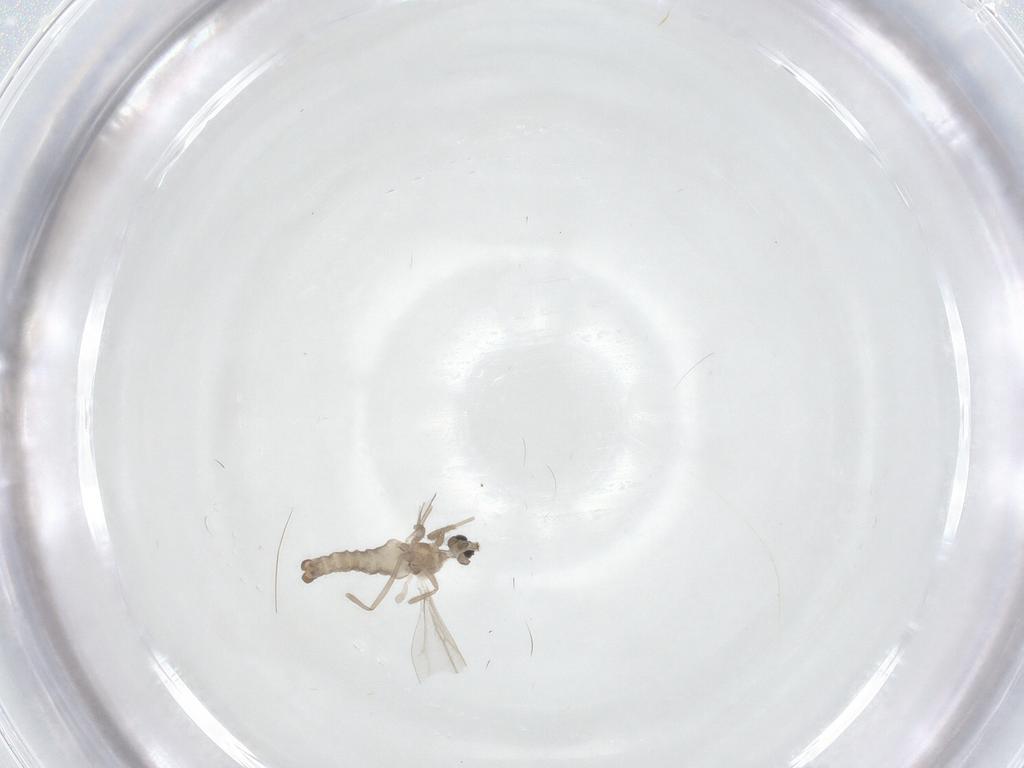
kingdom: Animalia
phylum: Arthropoda
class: Insecta
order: Diptera
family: Cecidomyiidae
